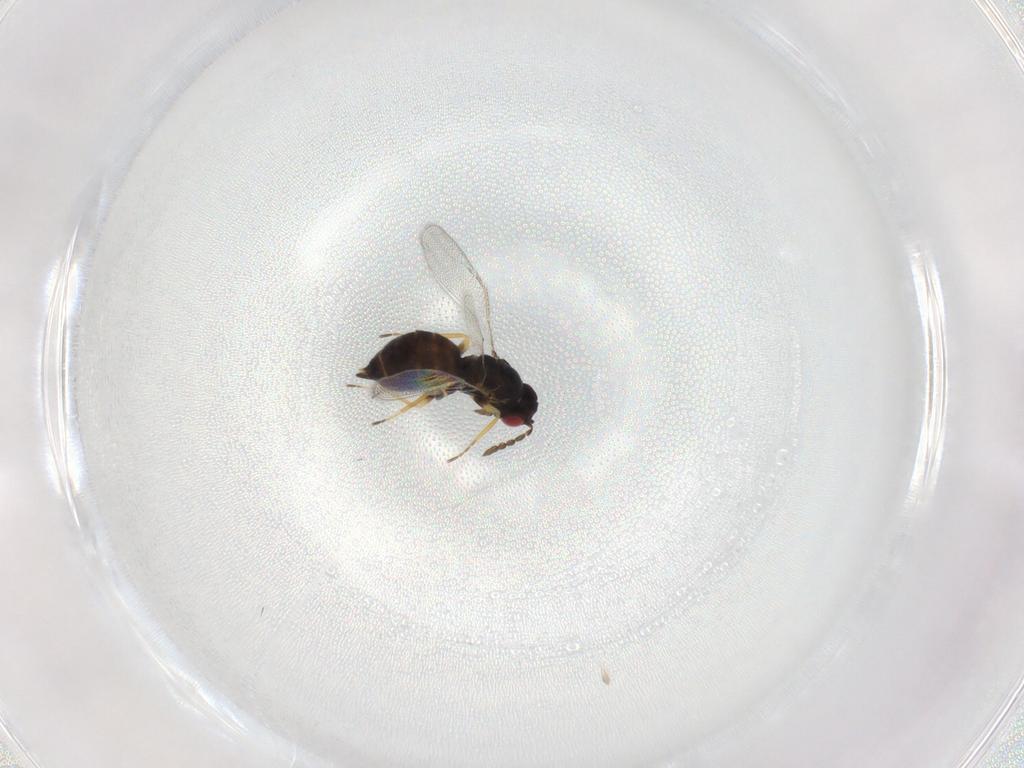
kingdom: Animalia
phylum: Arthropoda
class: Insecta
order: Hymenoptera
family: Eulophidae
